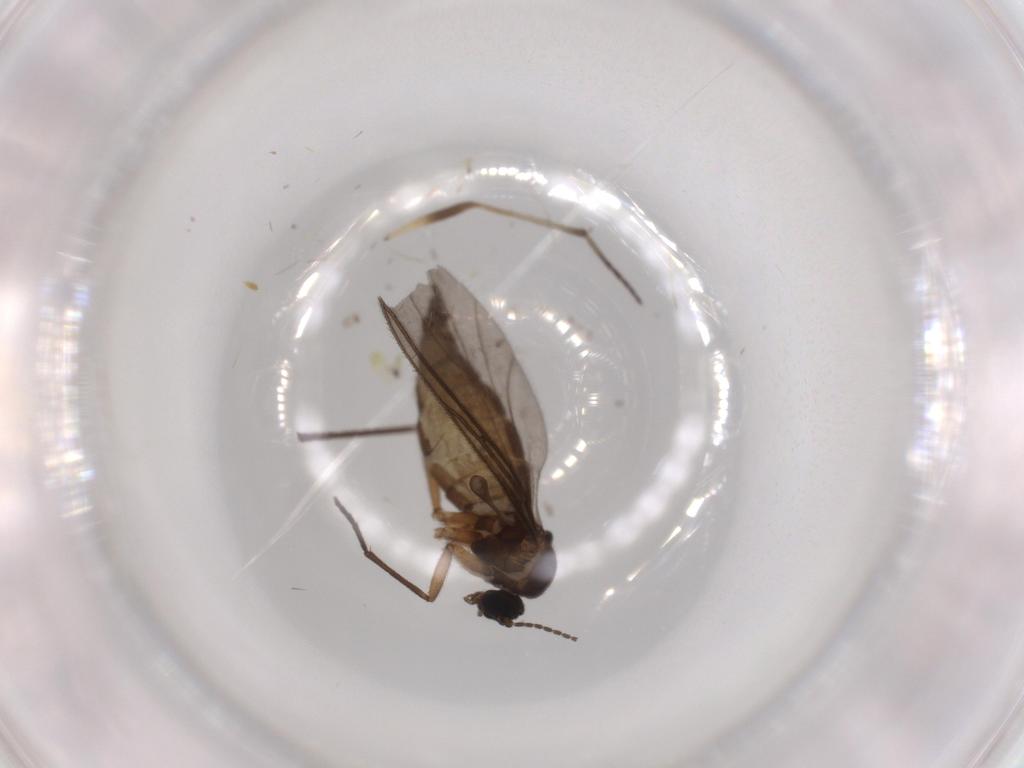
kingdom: Animalia
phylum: Arthropoda
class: Insecta
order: Diptera
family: Sciaridae
